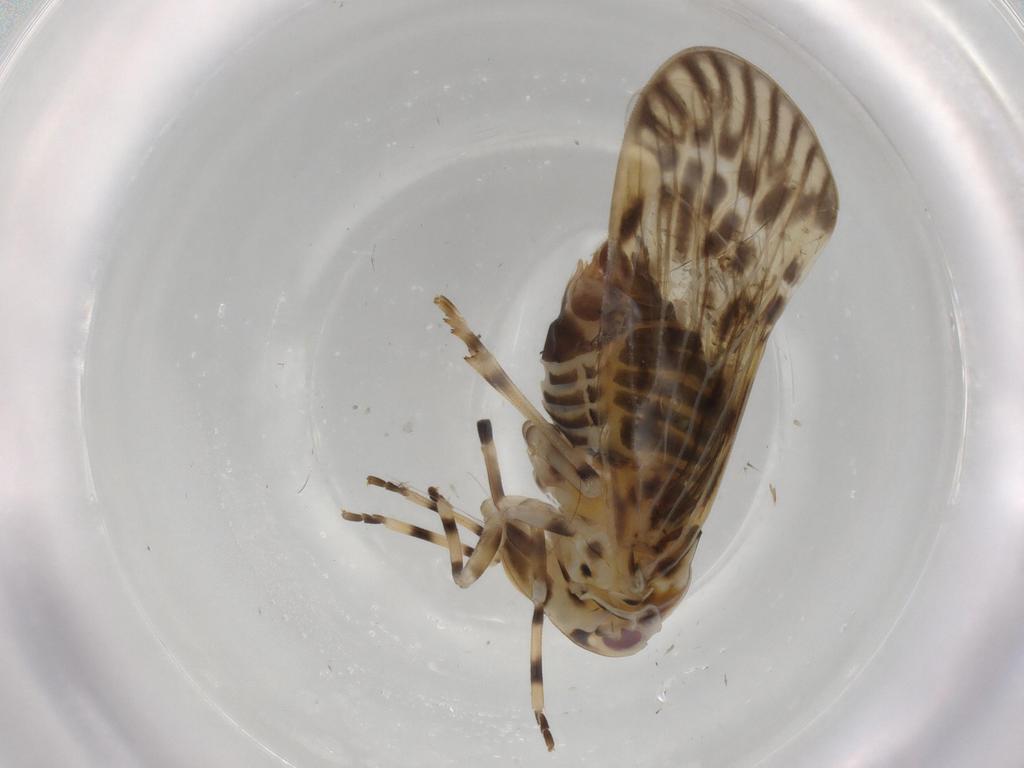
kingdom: Animalia
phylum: Arthropoda
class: Insecta
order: Hemiptera
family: Derbidae
